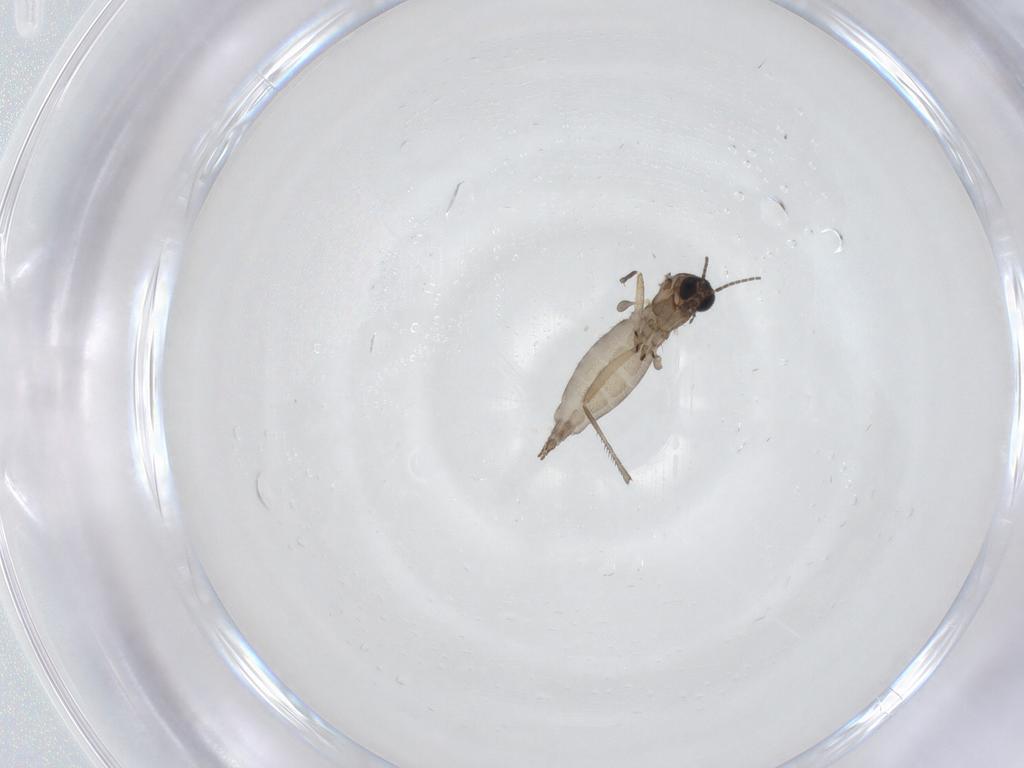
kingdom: Animalia
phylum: Arthropoda
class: Insecta
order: Diptera
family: Sciaridae
